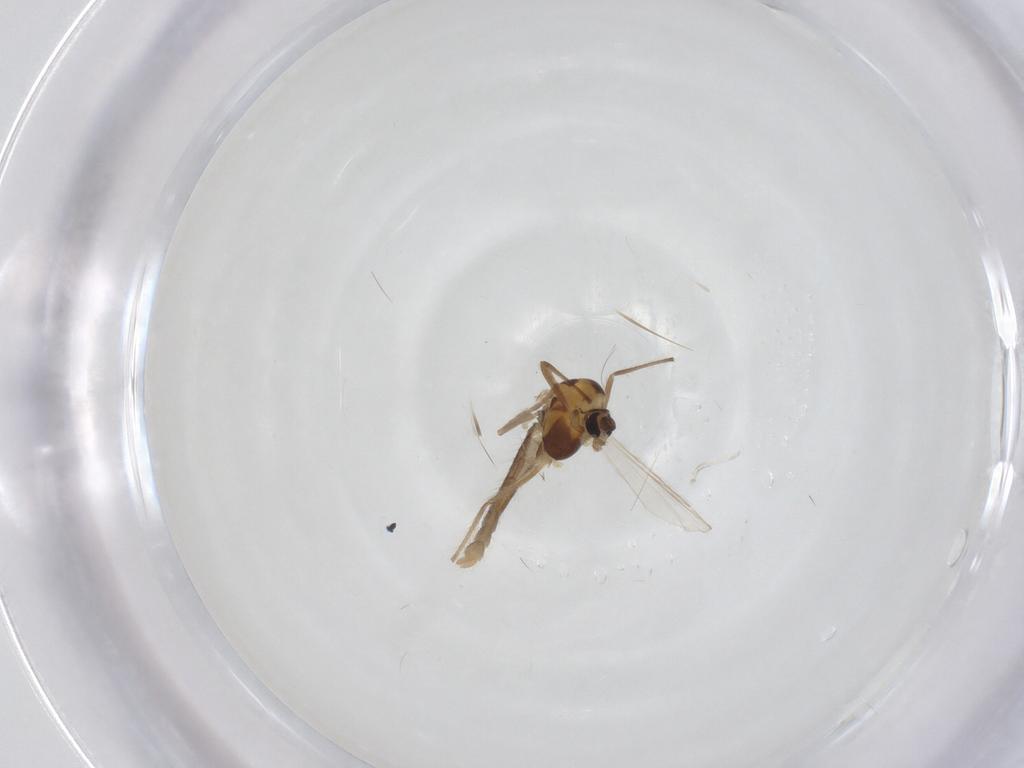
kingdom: Animalia
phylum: Arthropoda
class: Insecta
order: Diptera
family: Chironomidae
